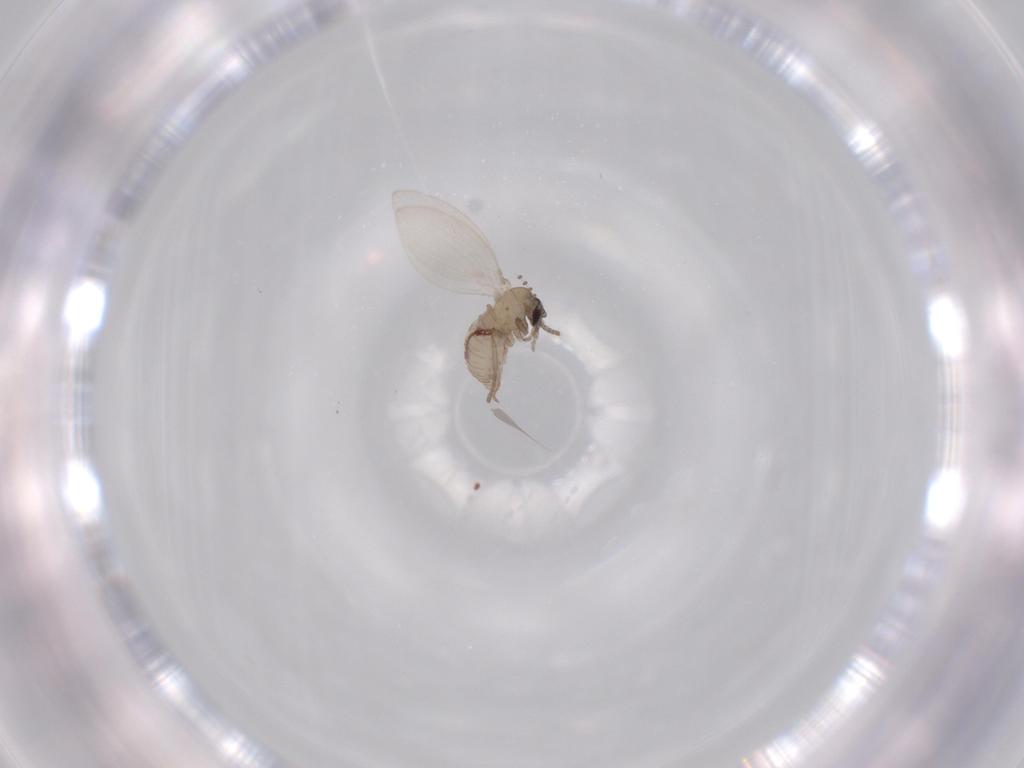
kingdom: Animalia
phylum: Arthropoda
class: Insecta
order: Diptera
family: Psychodidae
